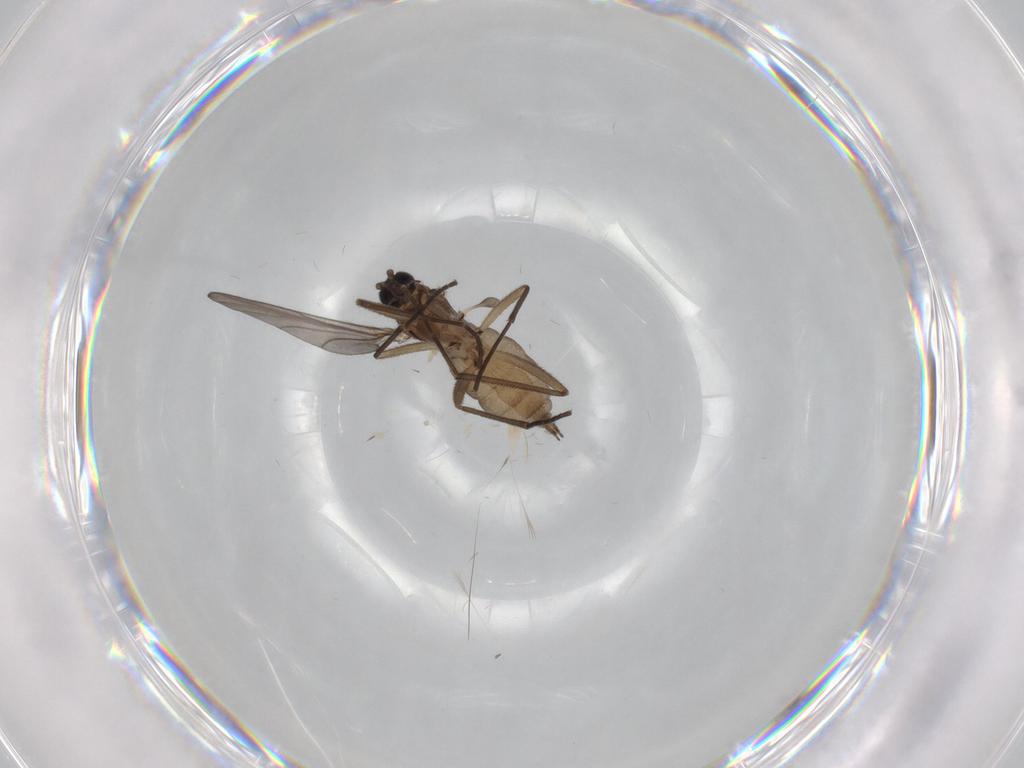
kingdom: Animalia
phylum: Arthropoda
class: Insecta
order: Diptera
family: Sciaridae
